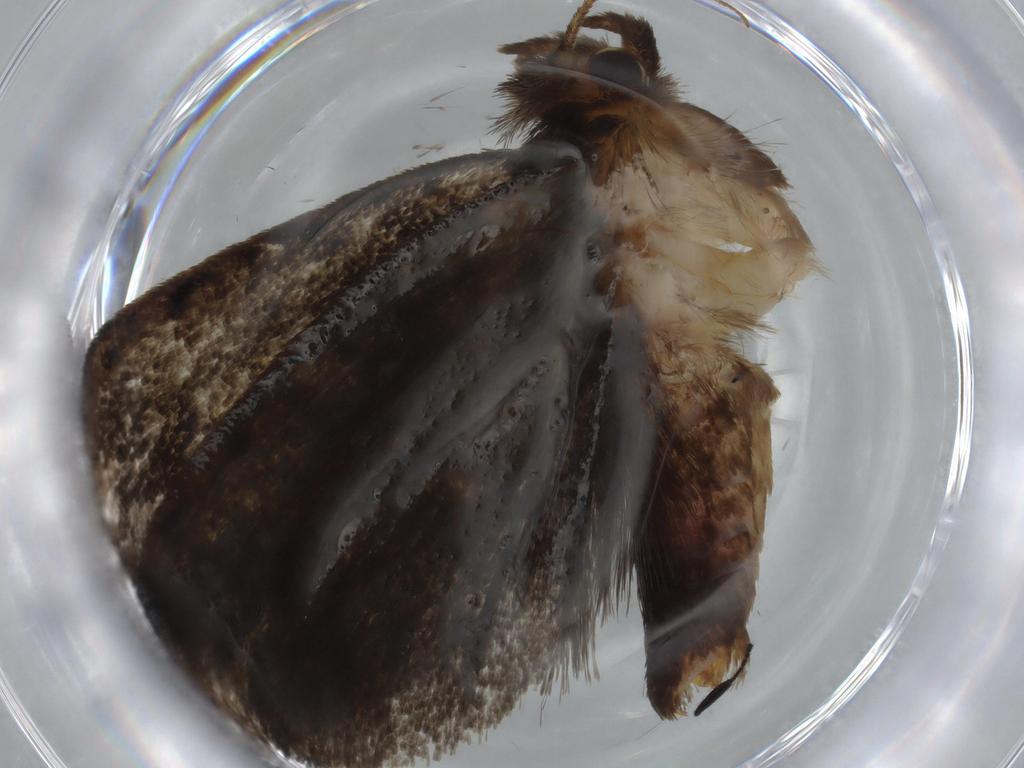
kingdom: Animalia
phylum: Arthropoda
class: Insecta
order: Lepidoptera
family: Tineidae
